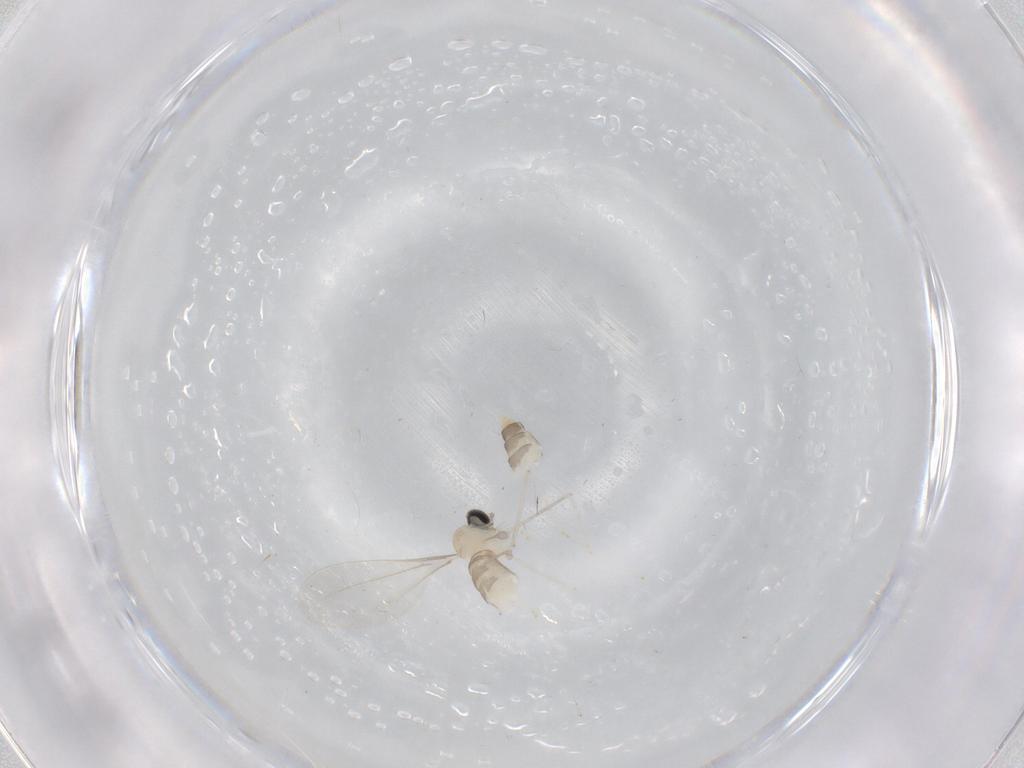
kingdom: Animalia
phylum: Arthropoda
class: Insecta
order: Diptera
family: Cecidomyiidae
